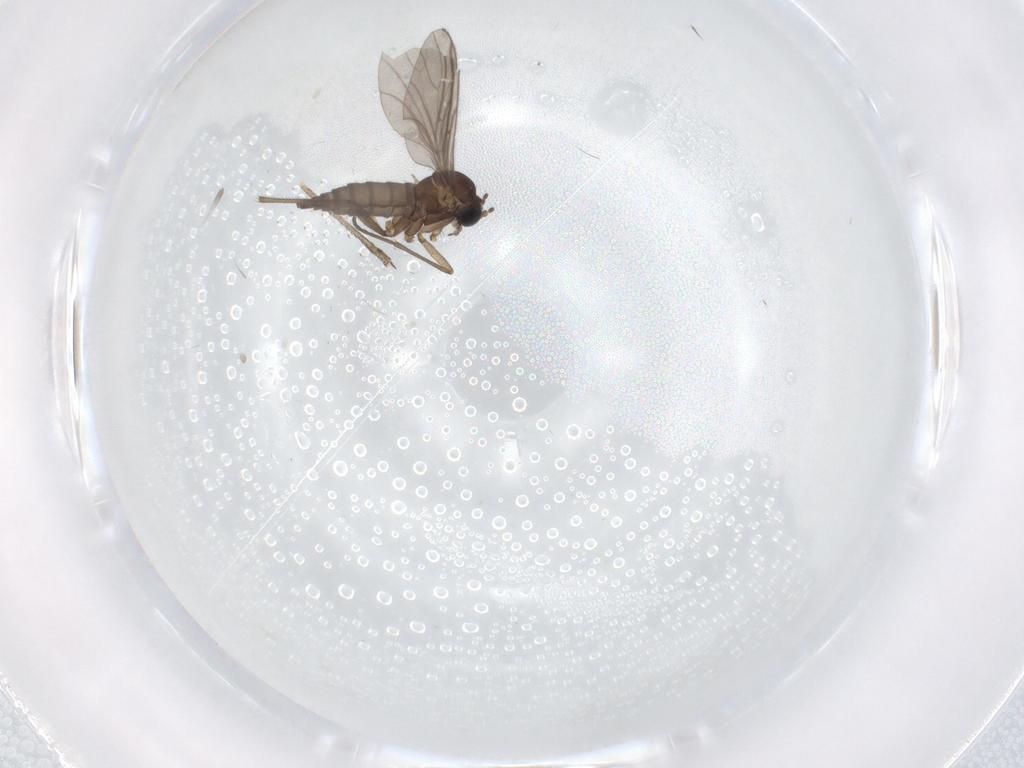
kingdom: Animalia
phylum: Arthropoda
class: Insecta
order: Diptera
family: Sciaridae
